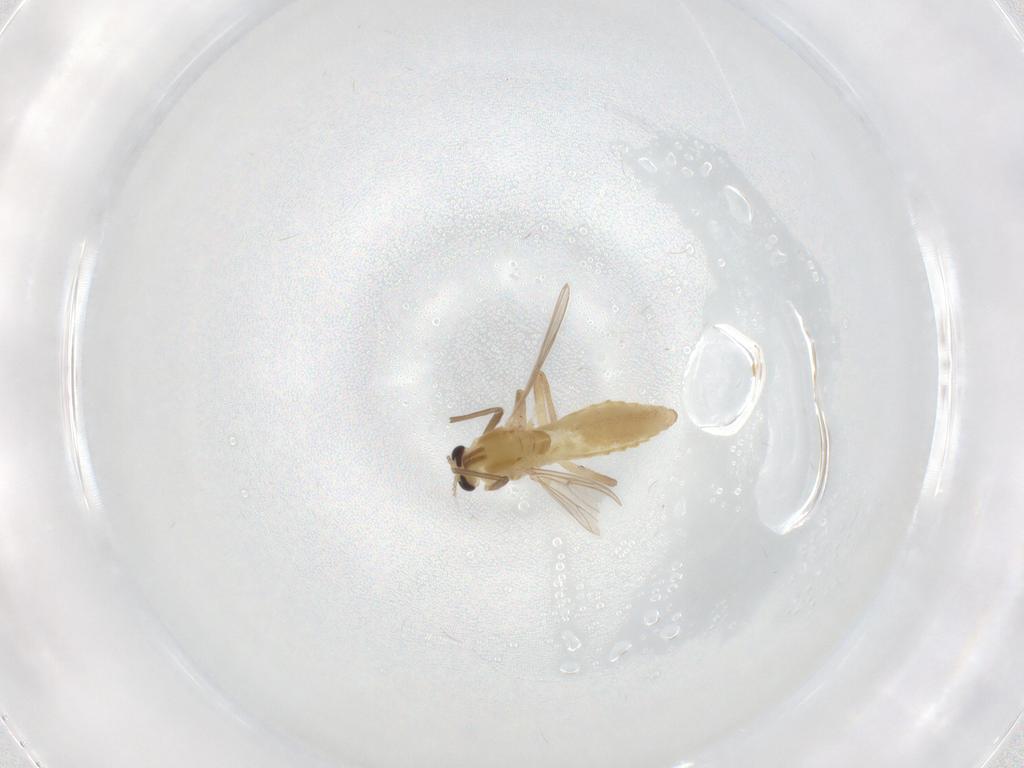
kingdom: Animalia
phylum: Arthropoda
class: Insecta
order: Diptera
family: Chironomidae
